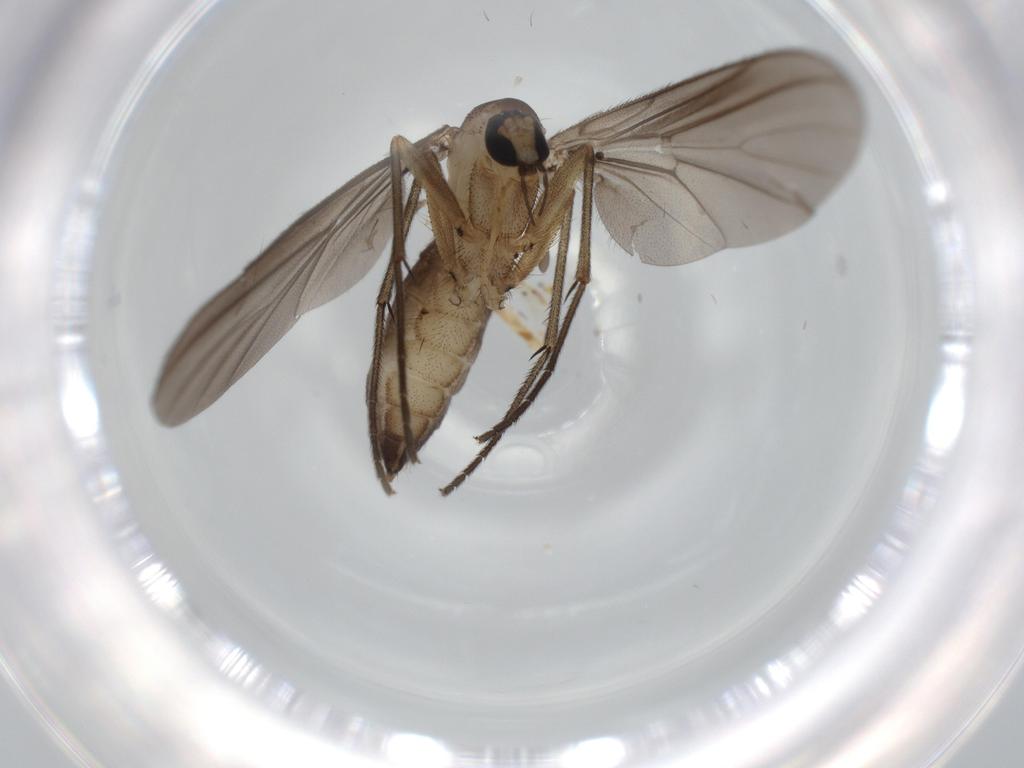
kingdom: Animalia
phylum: Arthropoda
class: Insecta
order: Diptera
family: Diadocidiidae
